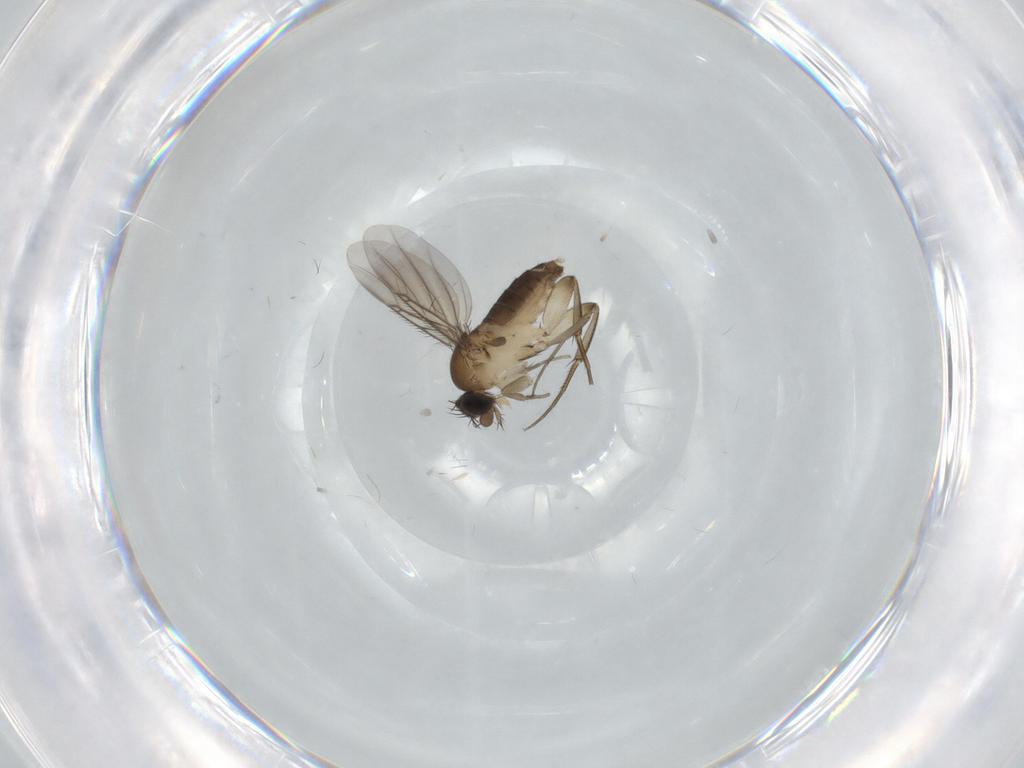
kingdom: Animalia
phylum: Arthropoda
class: Insecta
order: Diptera
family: Phoridae
